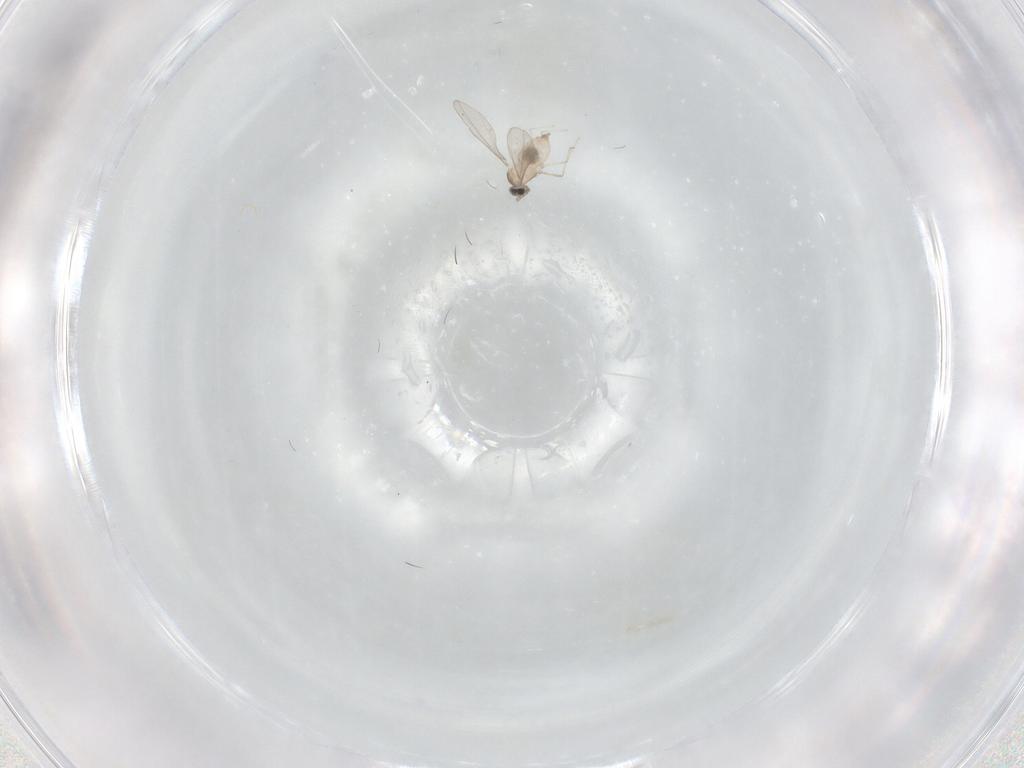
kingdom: Animalia
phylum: Arthropoda
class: Insecta
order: Diptera
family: Cecidomyiidae
